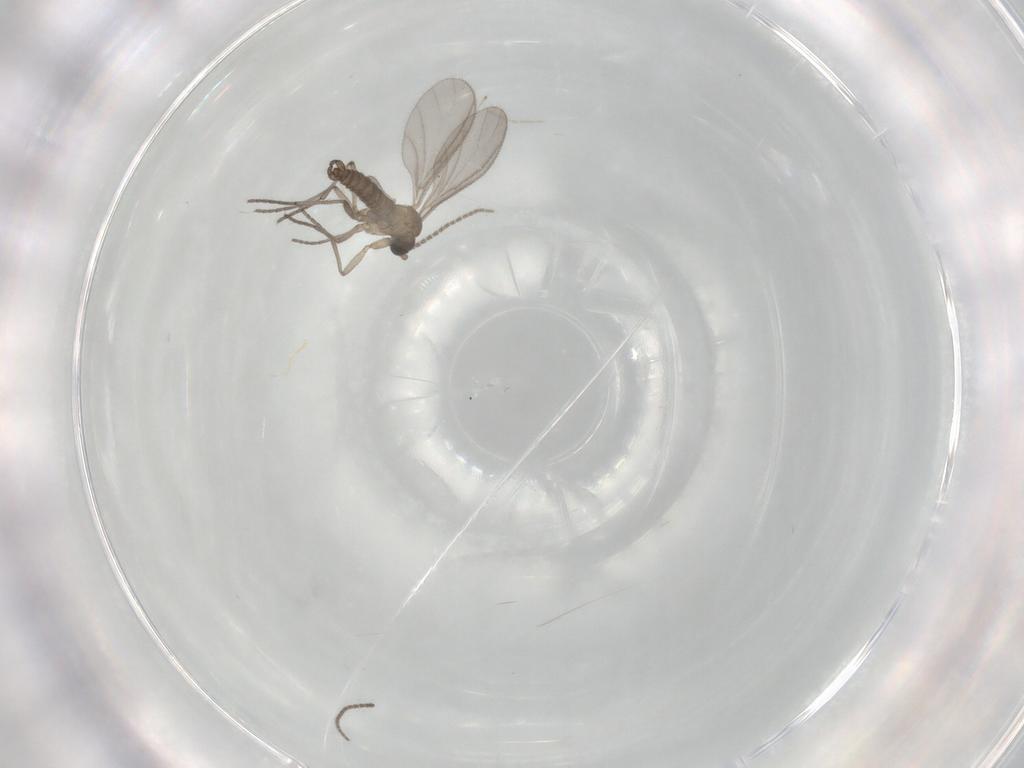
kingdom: Animalia
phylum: Arthropoda
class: Insecta
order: Diptera
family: Sciaridae
